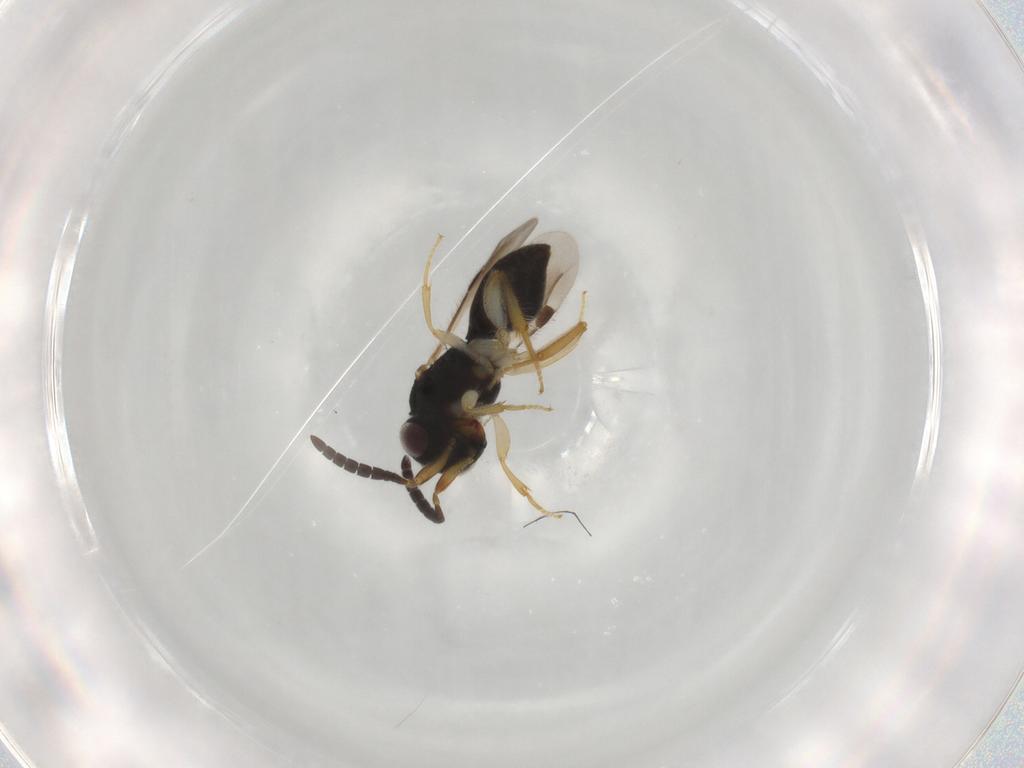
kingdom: Animalia
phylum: Arthropoda
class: Insecta
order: Hymenoptera
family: Megaspilidae
